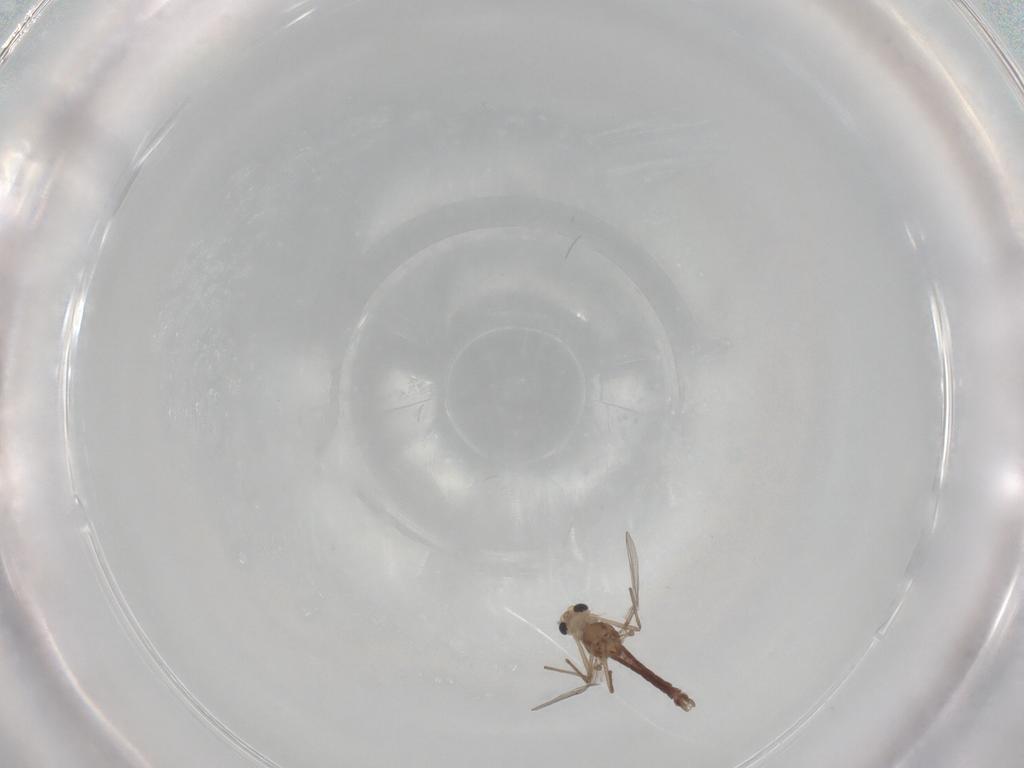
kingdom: Animalia
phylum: Arthropoda
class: Insecta
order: Diptera
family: Chironomidae
